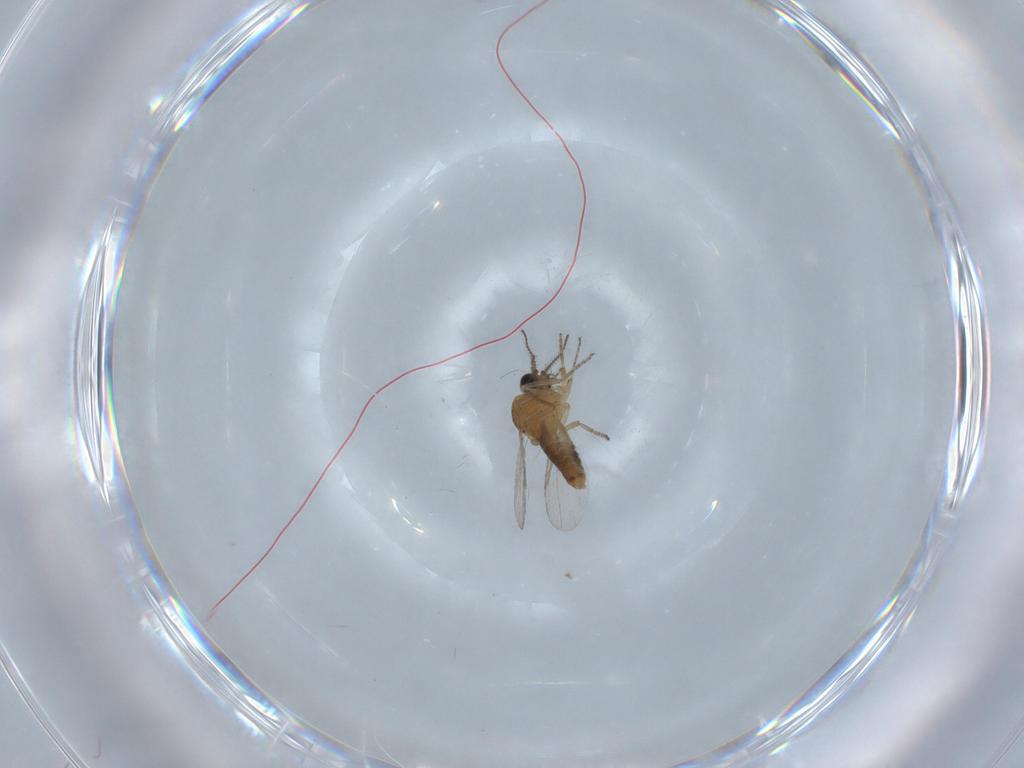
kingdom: Animalia
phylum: Arthropoda
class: Insecta
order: Diptera
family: Ceratopogonidae
